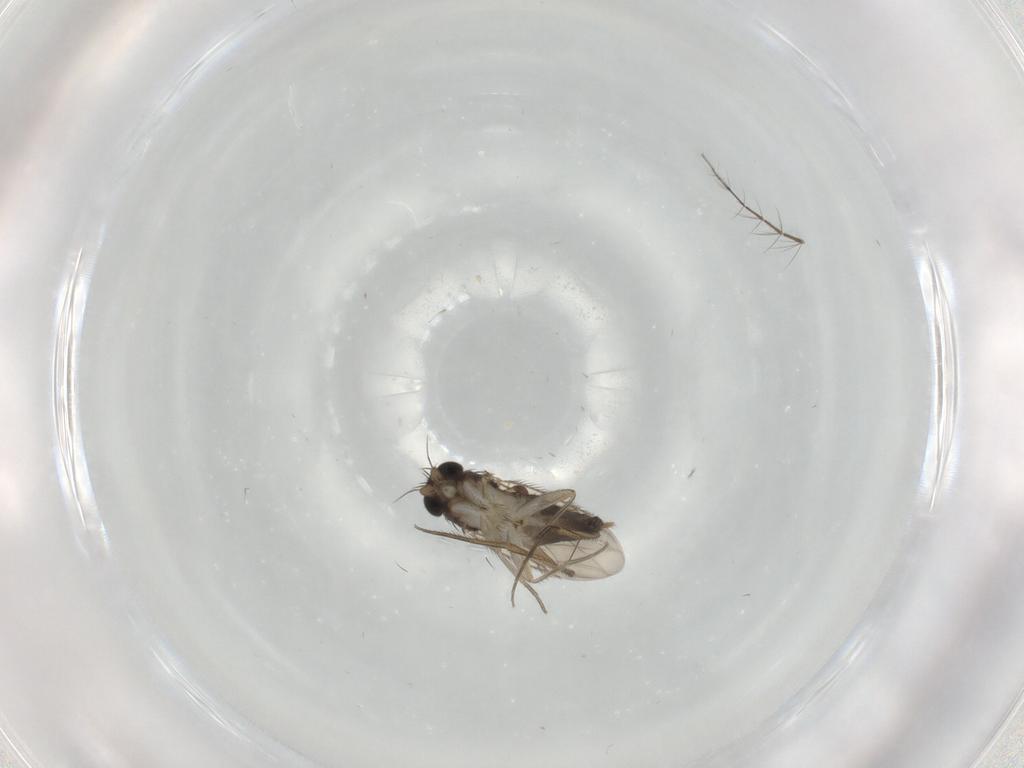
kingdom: Animalia
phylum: Arthropoda
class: Insecta
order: Diptera
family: Phoridae
